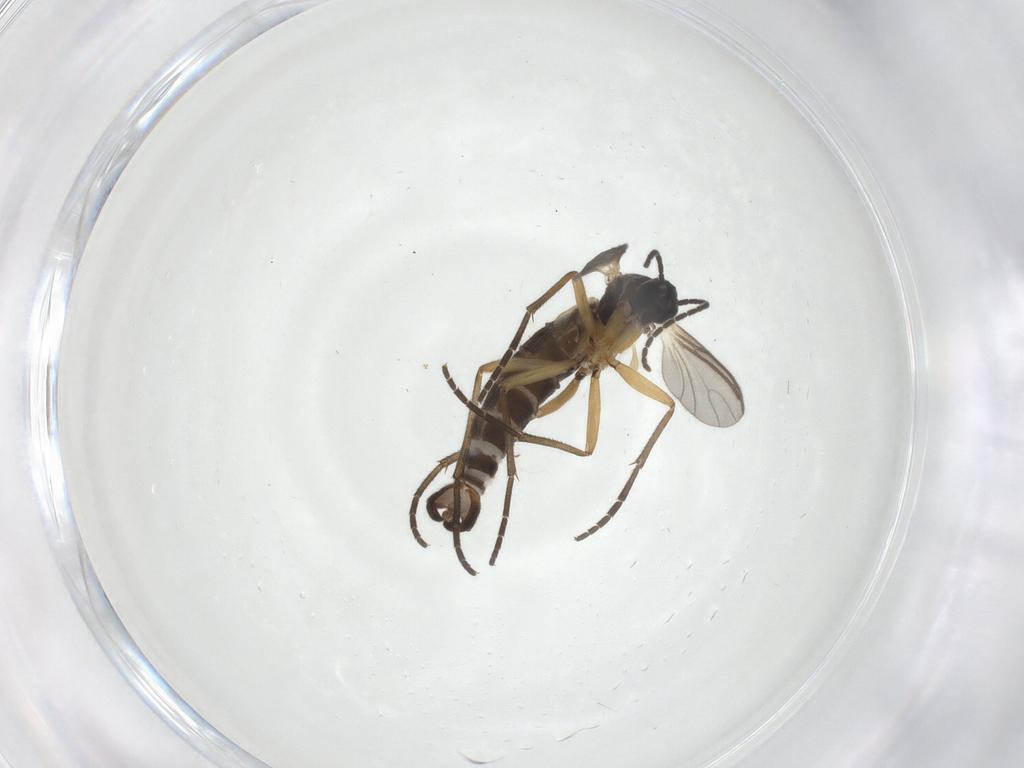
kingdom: Animalia
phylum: Arthropoda
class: Insecta
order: Diptera
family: Sciaridae
